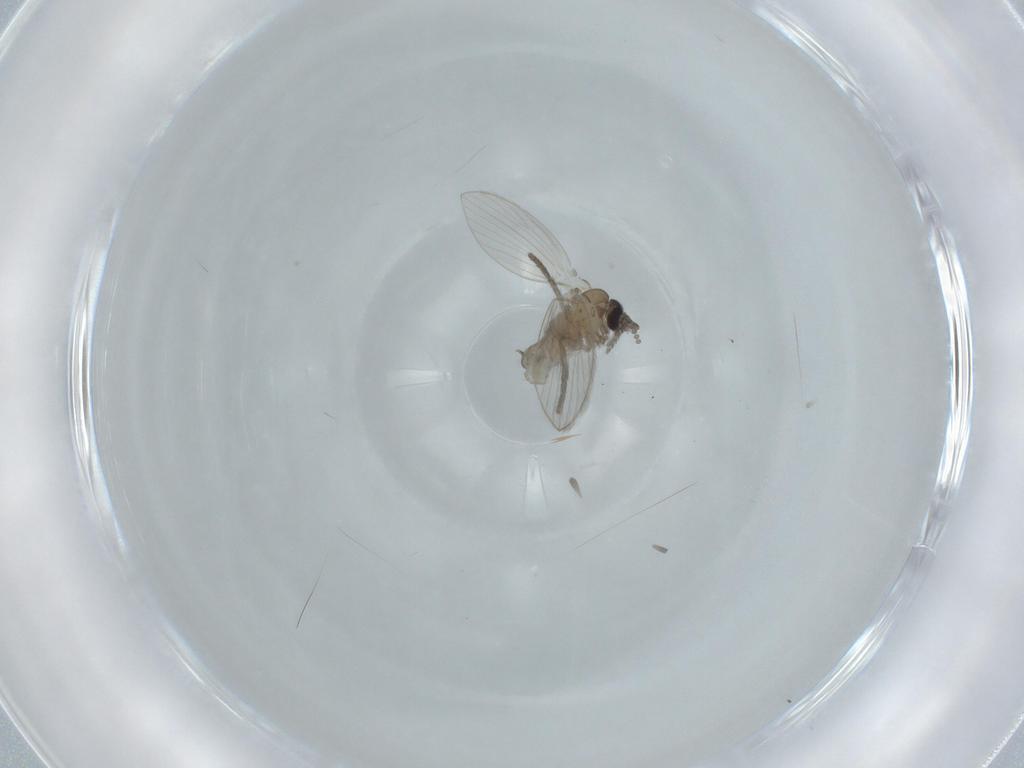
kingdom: Animalia
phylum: Arthropoda
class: Insecta
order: Diptera
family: Psychodidae
